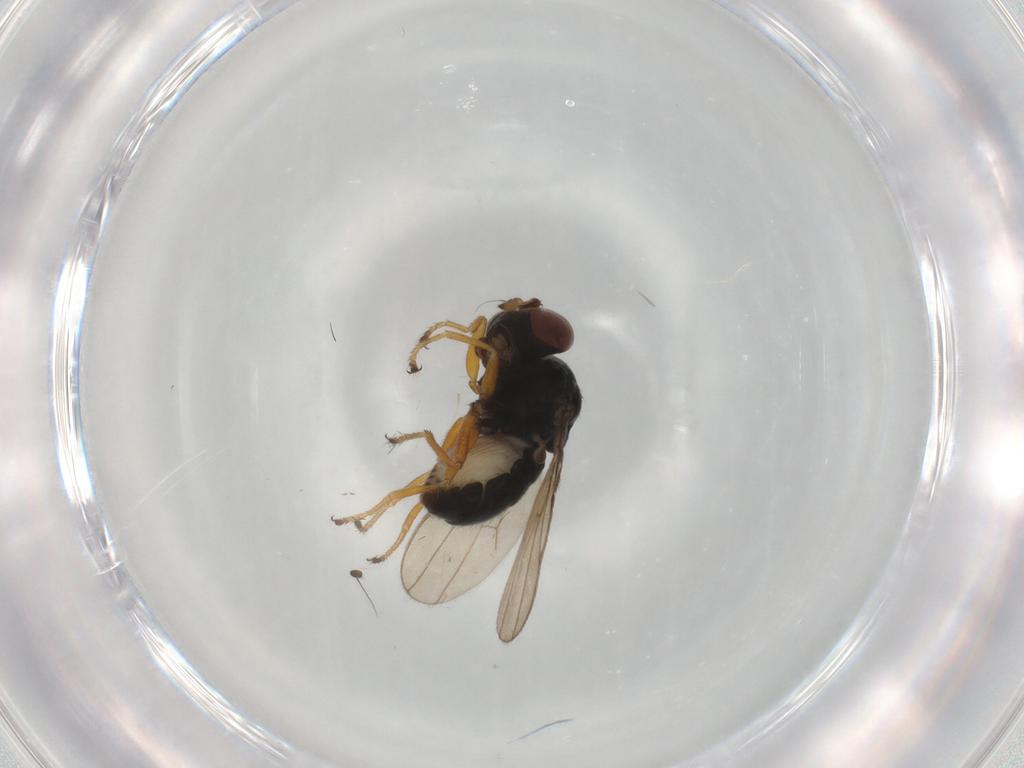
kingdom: Animalia
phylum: Arthropoda
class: Insecta
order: Diptera
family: Ephydridae
